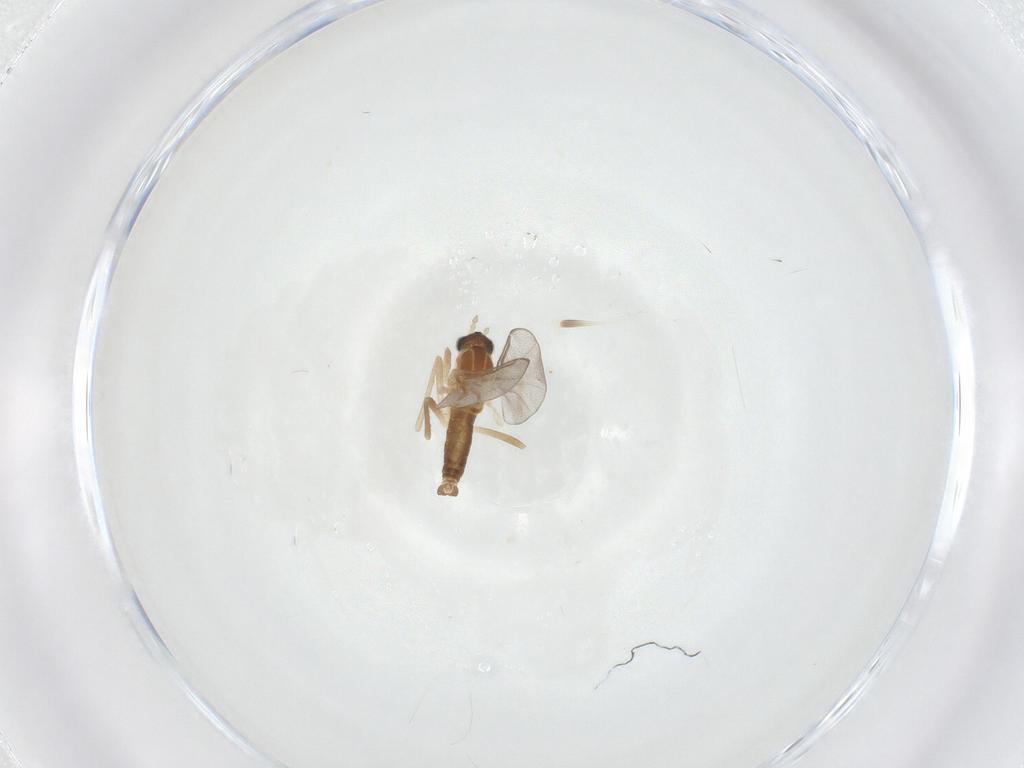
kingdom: Animalia
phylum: Arthropoda
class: Insecta
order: Diptera
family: Cecidomyiidae
